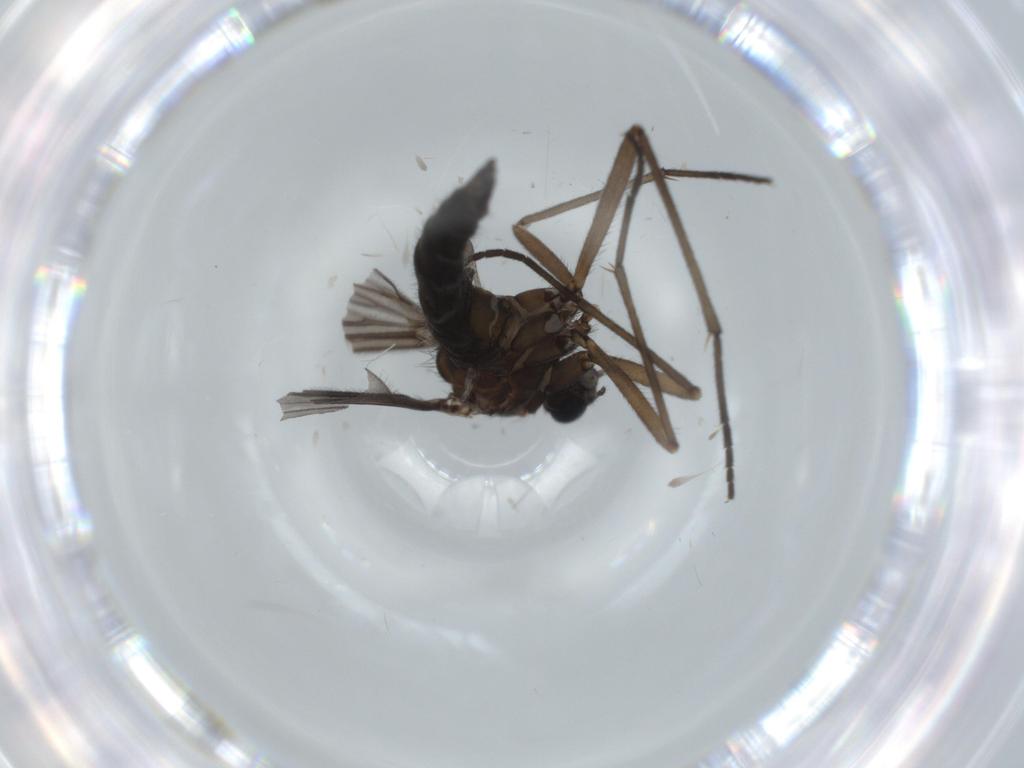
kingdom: Animalia
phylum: Arthropoda
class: Insecta
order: Diptera
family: Sciaridae
